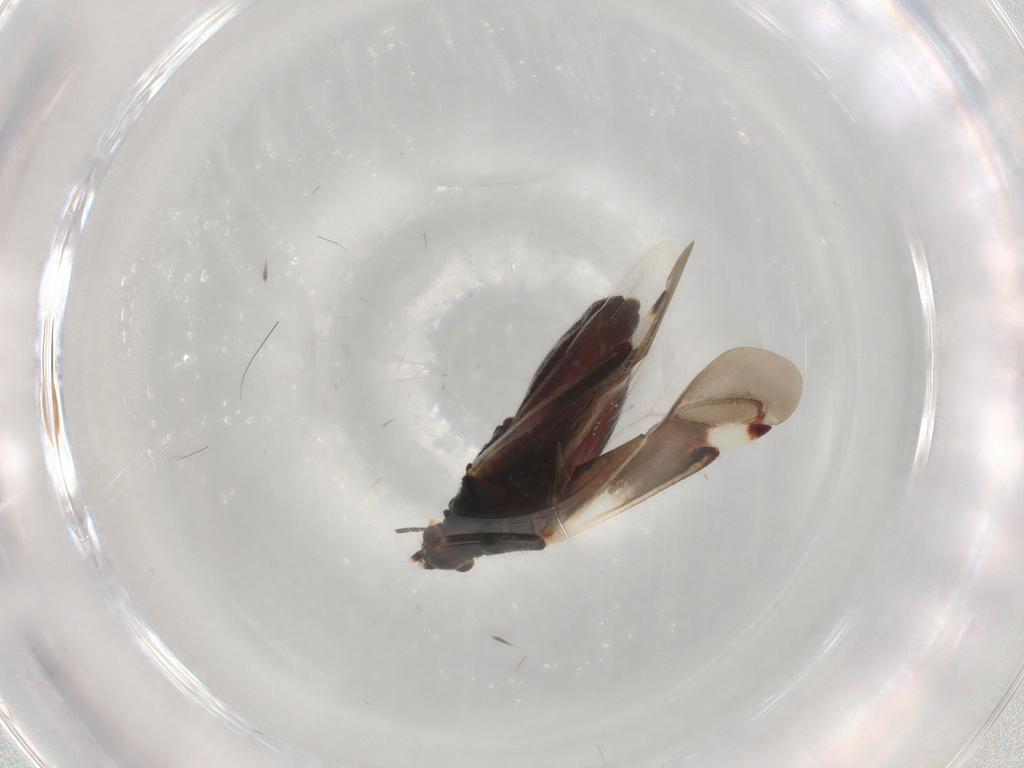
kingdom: Animalia
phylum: Arthropoda
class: Insecta
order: Hemiptera
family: Miridae
